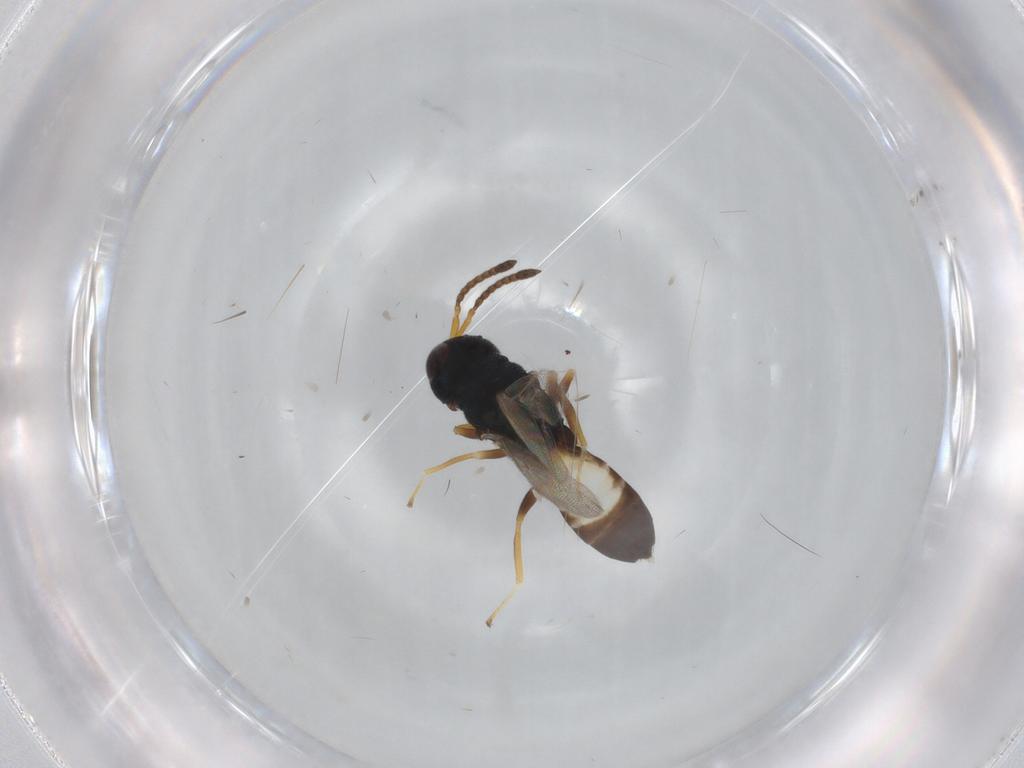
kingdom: Animalia
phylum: Arthropoda
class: Insecta
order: Hymenoptera
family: Pteromalidae
